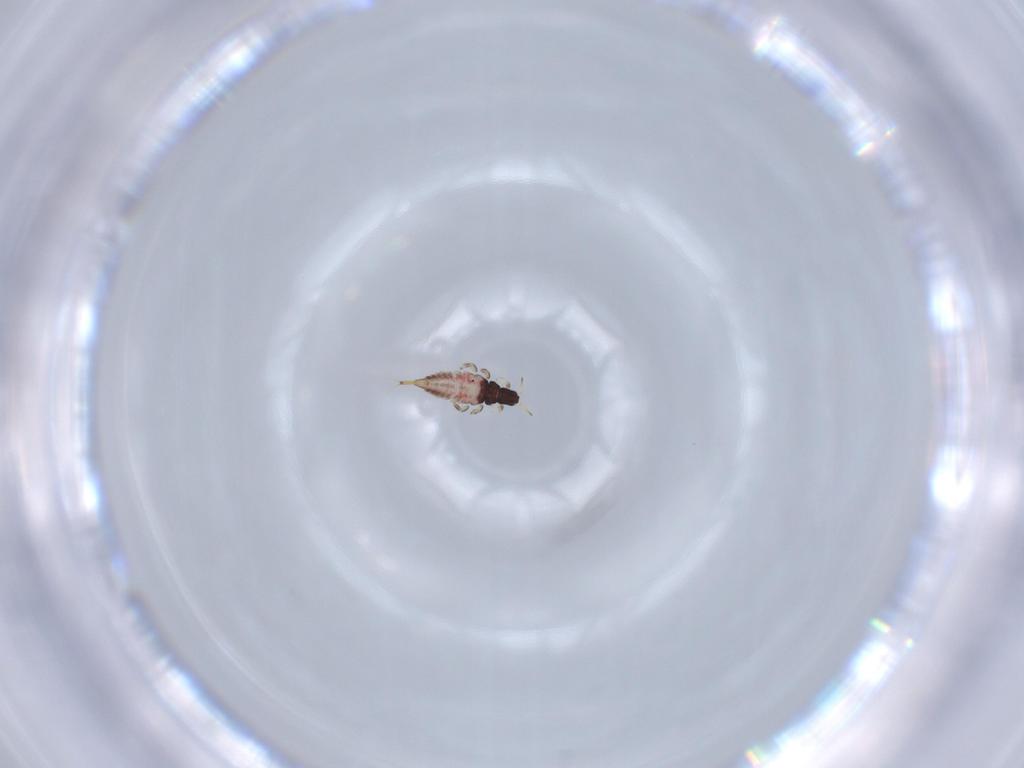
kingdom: Animalia
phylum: Arthropoda
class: Insecta
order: Thysanoptera
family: Phlaeothripidae
